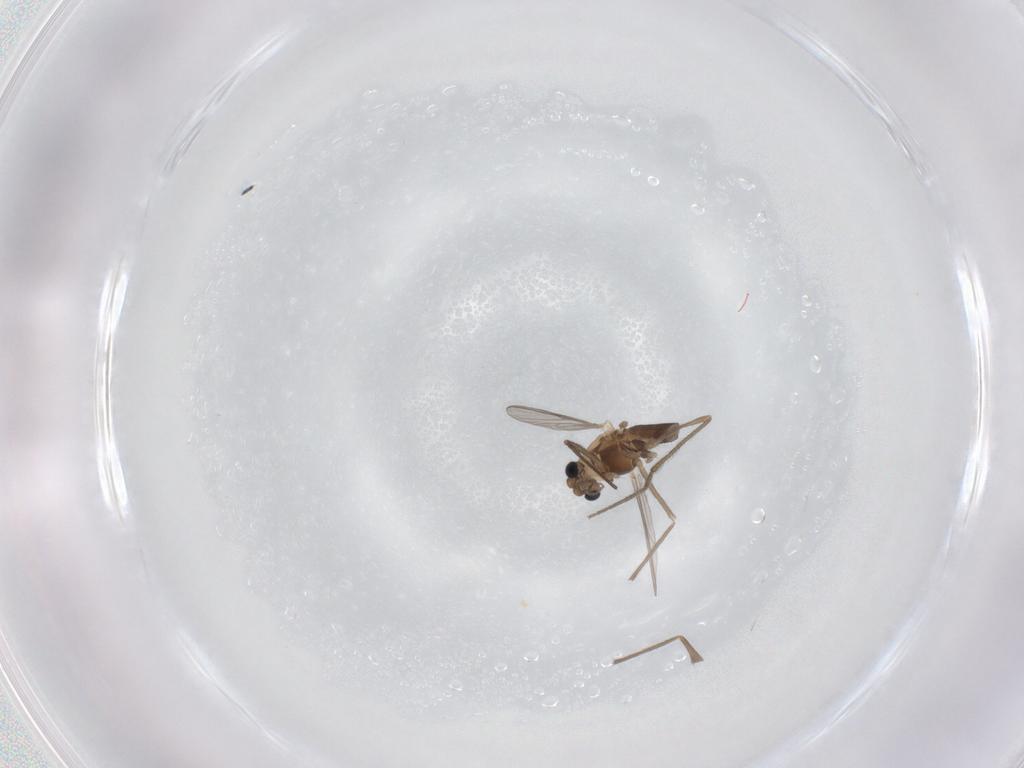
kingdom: Animalia
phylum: Arthropoda
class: Insecta
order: Diptera
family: Chironomidae
